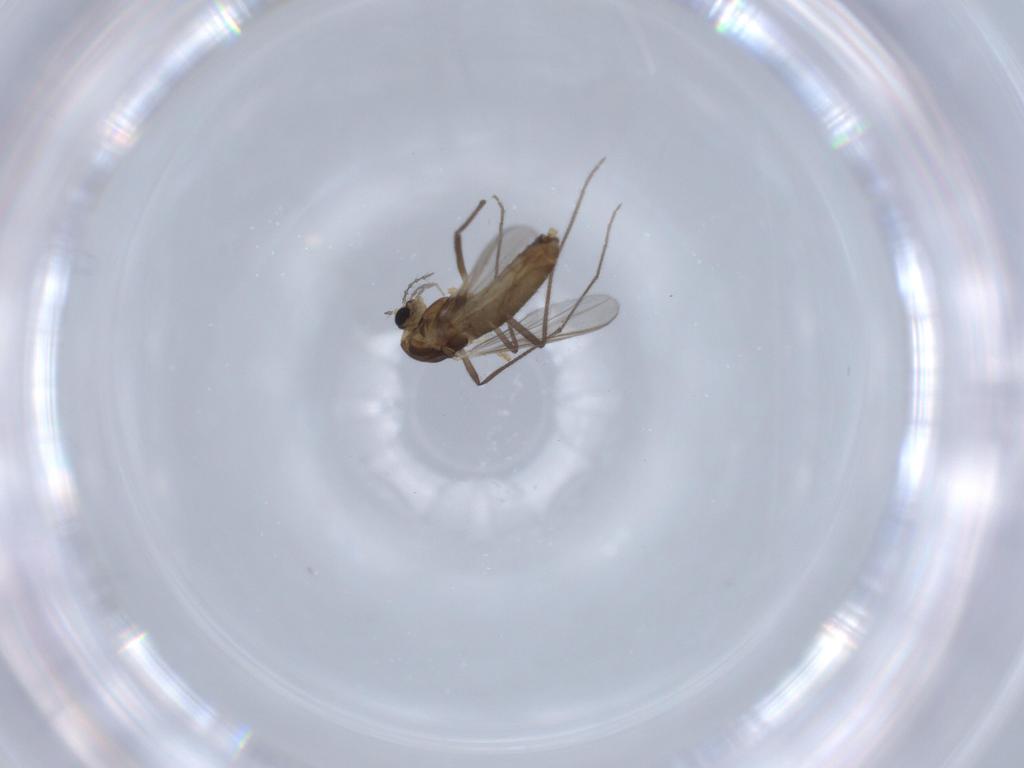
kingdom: Animalia
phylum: Arthropoda
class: Insecta
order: Diptera
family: Chironomidae
